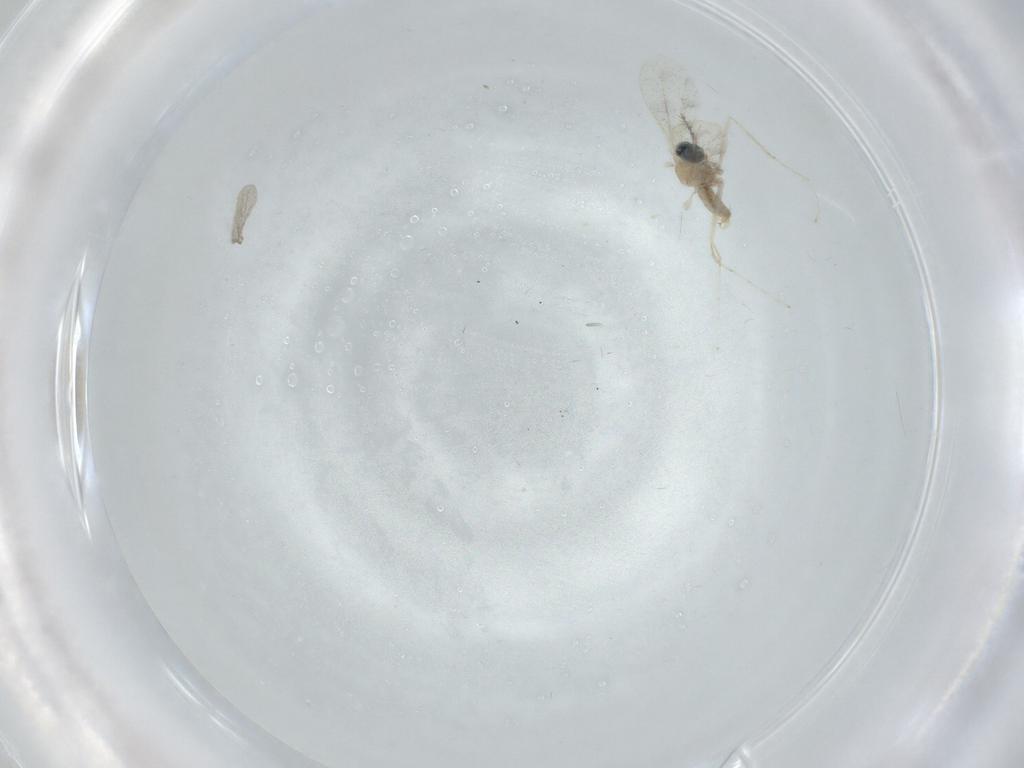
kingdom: Animalia
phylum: Arthropoda
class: Insecta
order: Diptera
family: Cecidomyiidae
